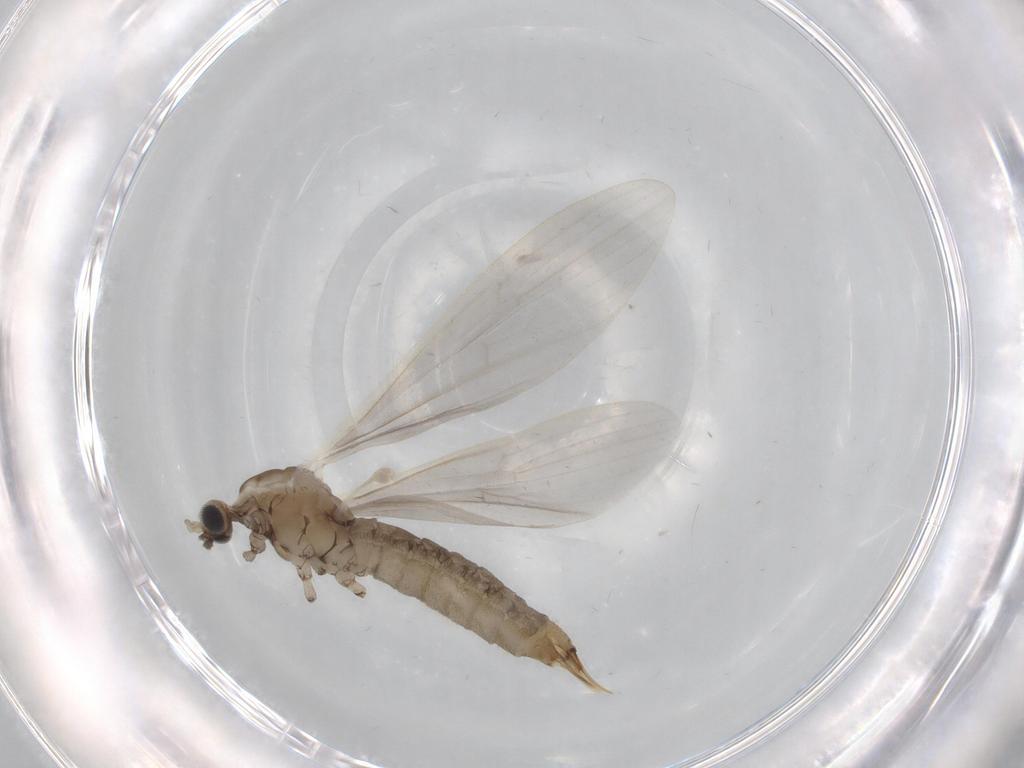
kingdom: Animalia
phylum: Arthropoda
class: Insecta
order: Diptera
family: Limoniidae
